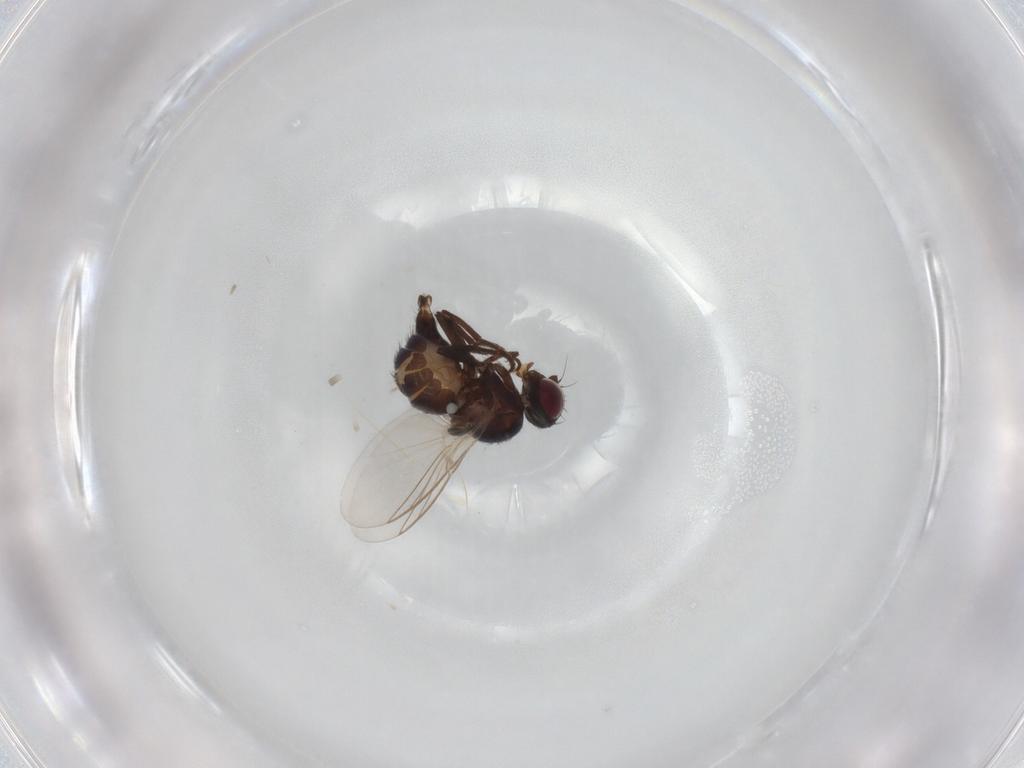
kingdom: Animalia
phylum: Arthropoda
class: Insecta
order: Diptera
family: Chironomidae
